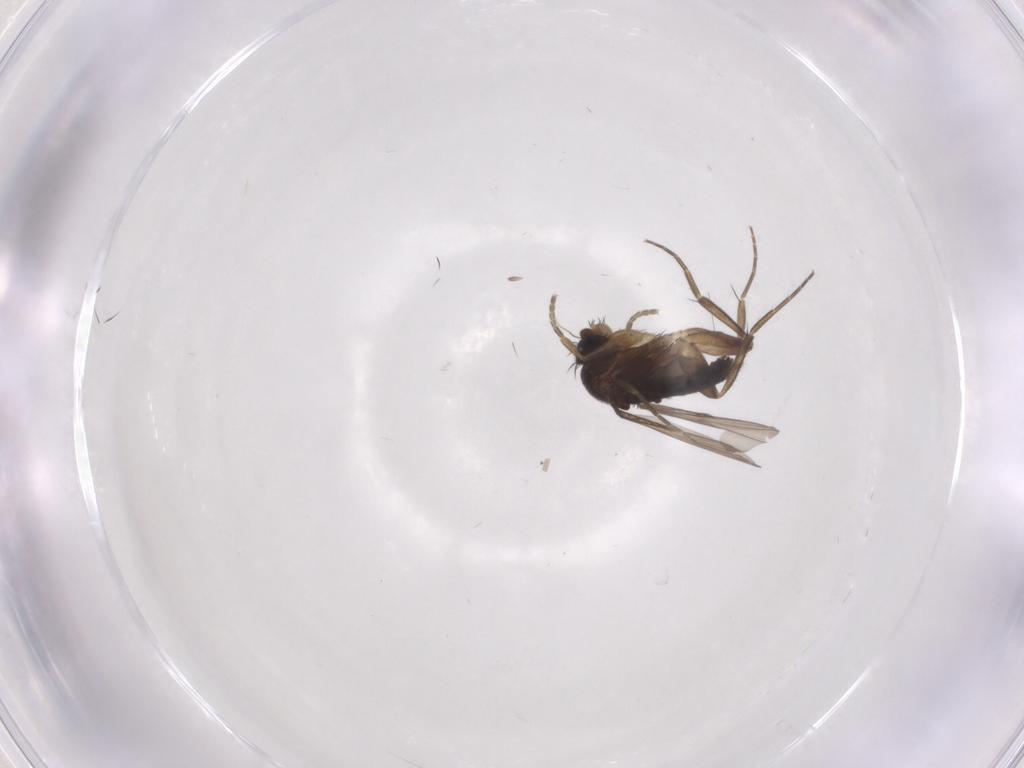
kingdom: Animalia
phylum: Arthropoda
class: Insecta
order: Diptera
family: Phoridae
